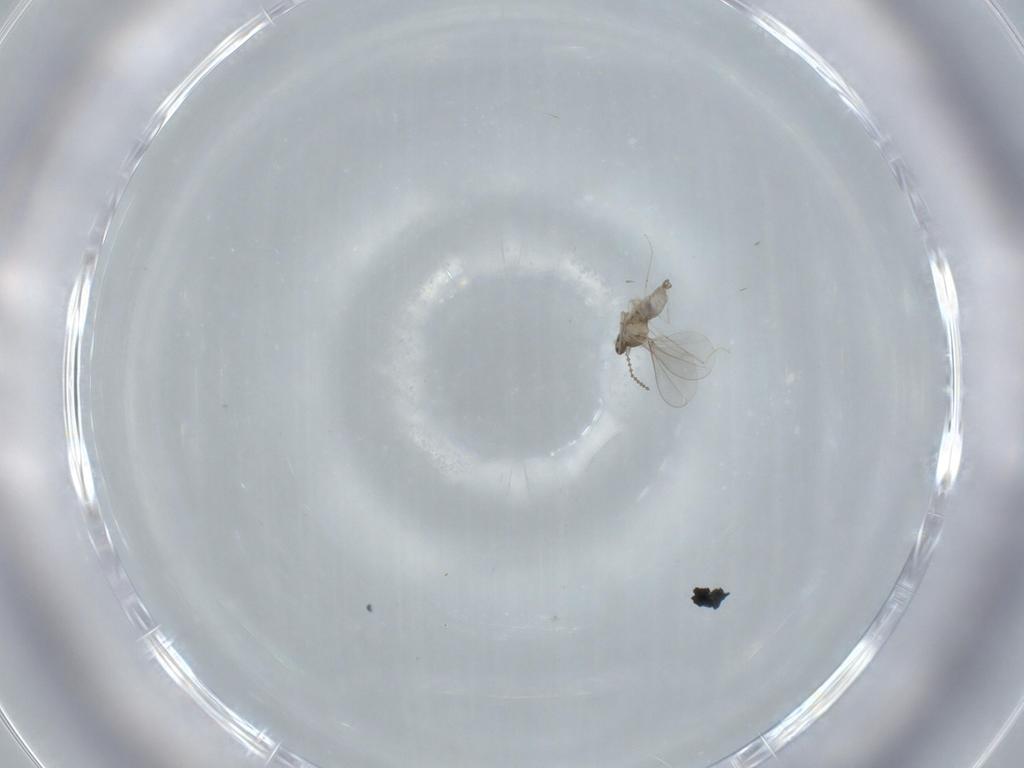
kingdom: Animalia
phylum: Arthropoda
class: Insecta
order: Diptera
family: Cecidomyiidae
